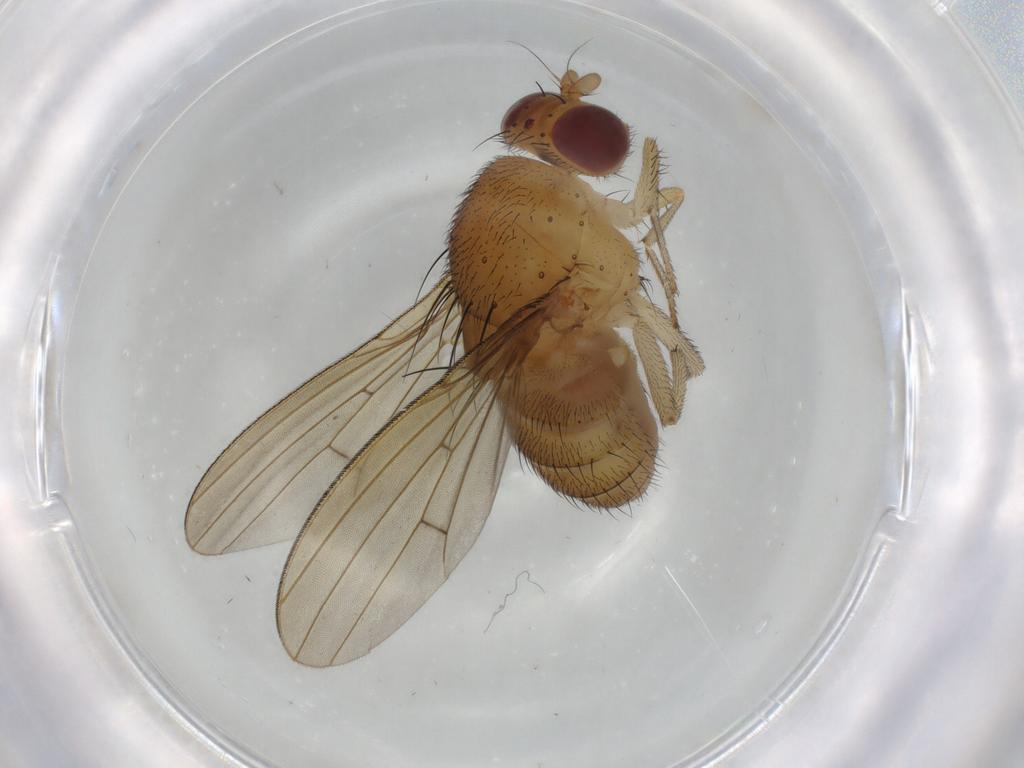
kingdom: Animalia
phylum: Arthropoda
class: Insecta
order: Diptera
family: Lauxaniidae
